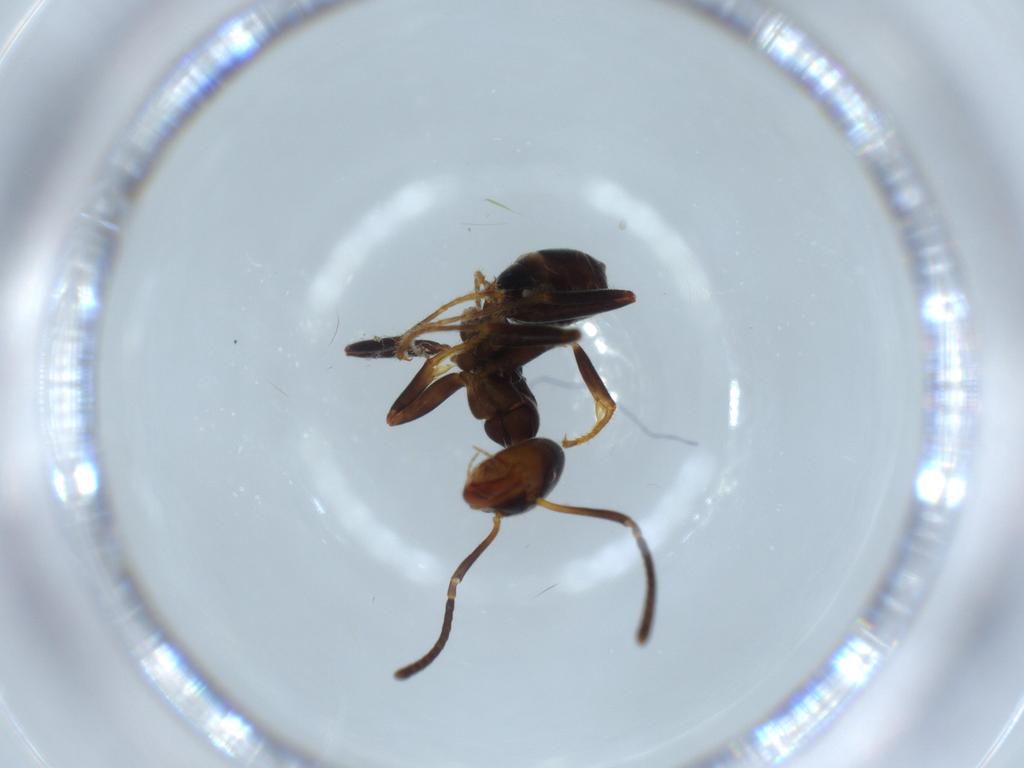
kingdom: Animalia
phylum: Arthropoda
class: Insecta
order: Hymenoptera
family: Formicidae
